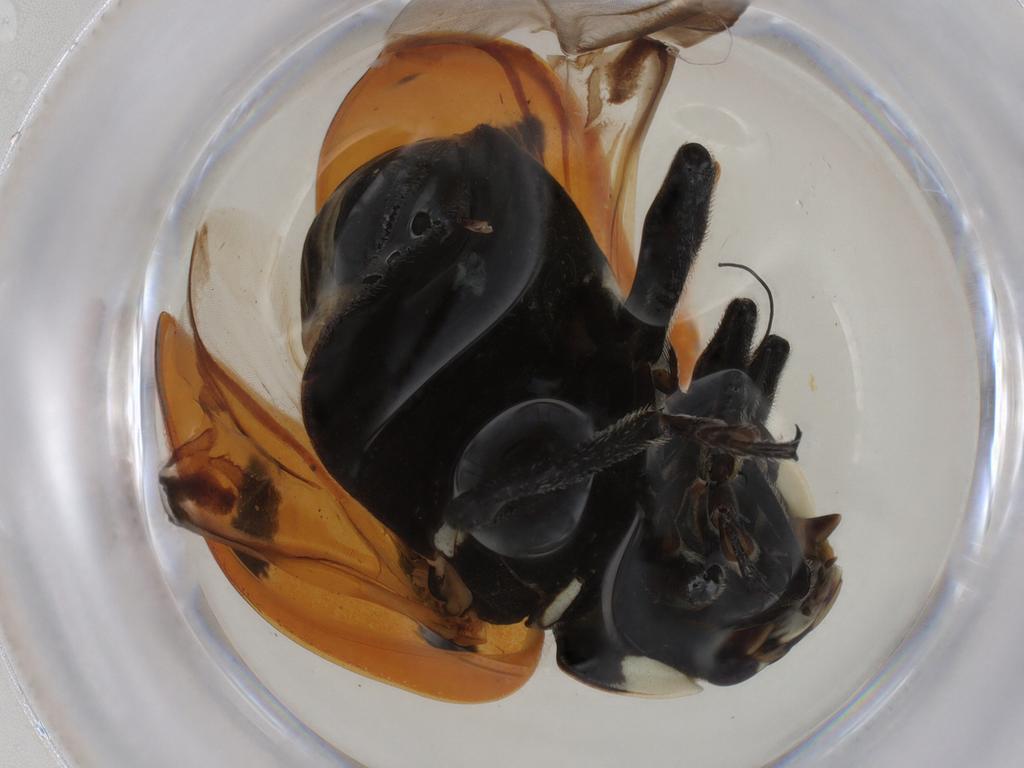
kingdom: Animalia
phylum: Arthropoda
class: Insecta
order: Coleoptera
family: Coccinellidae
